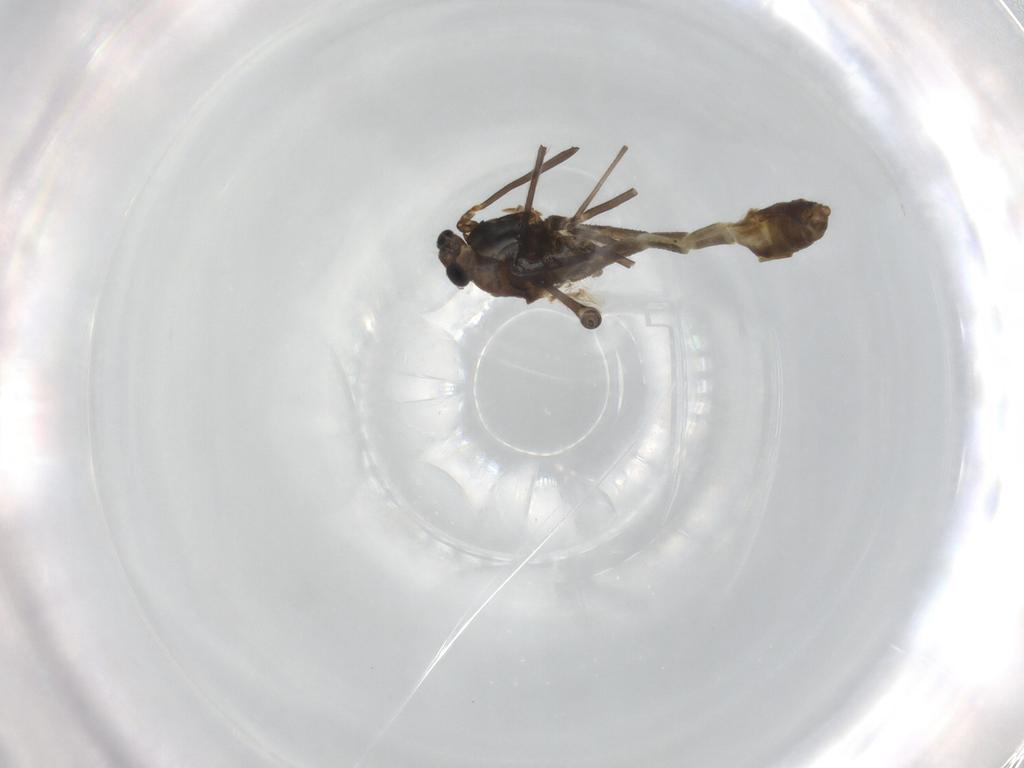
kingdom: Animalia
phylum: Arthropoda
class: Insecta
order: Diptera
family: Chironomidae
